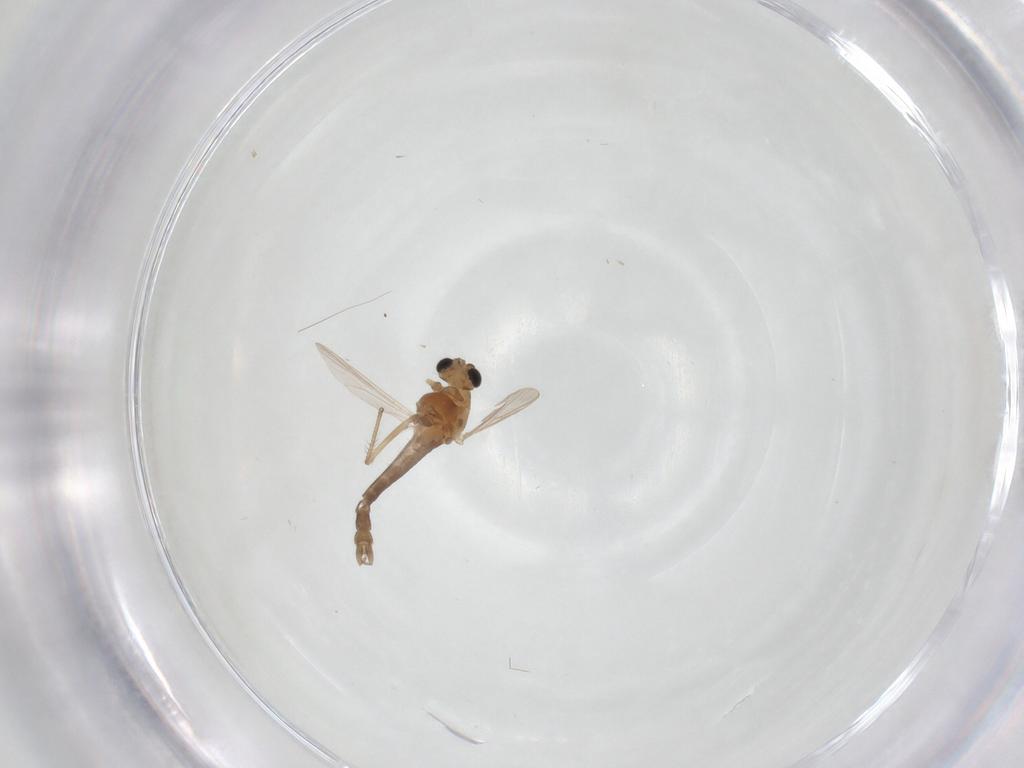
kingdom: Animalia
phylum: Arthropoda
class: Insecta
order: Diptera
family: Chironomidae
